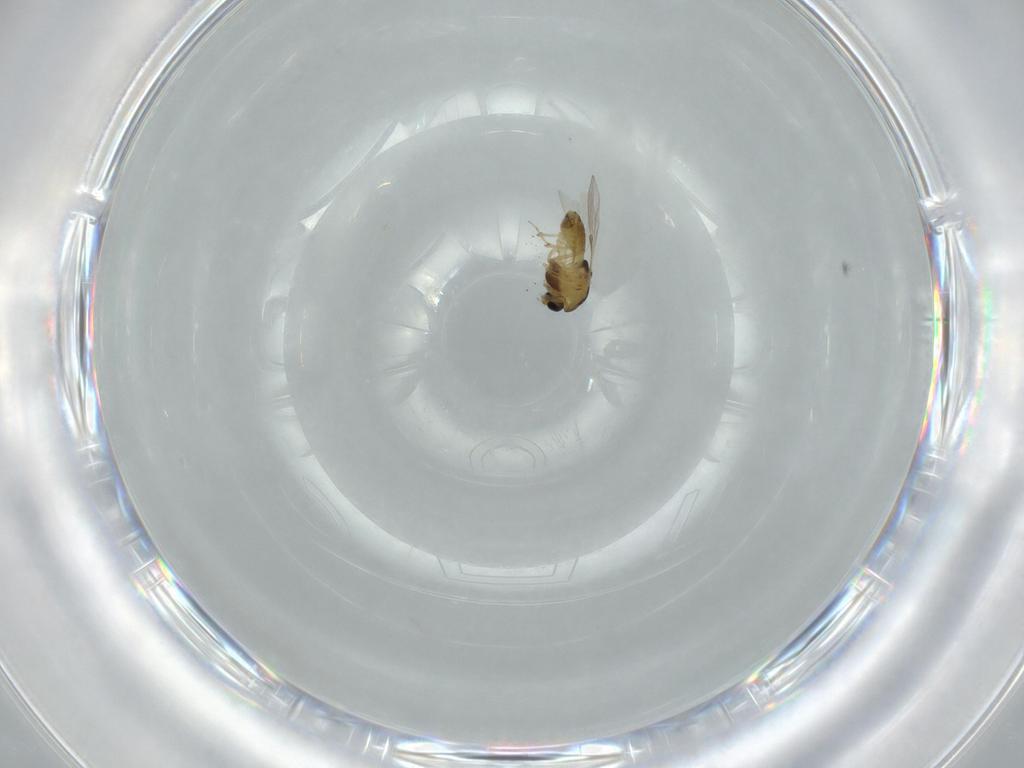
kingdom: Animalia
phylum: Arthropoda
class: Insecta
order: Diptera
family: Chironomidae
